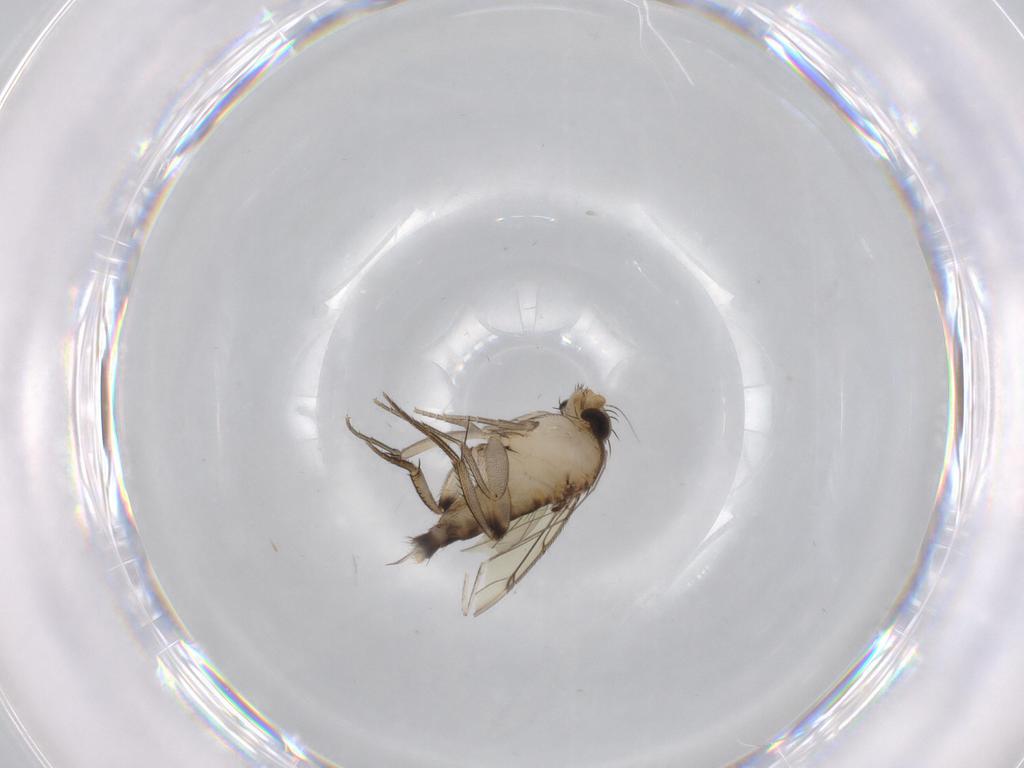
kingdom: Animalia
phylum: Arthropoda
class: Insecta
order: Diptera
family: Phoridae
